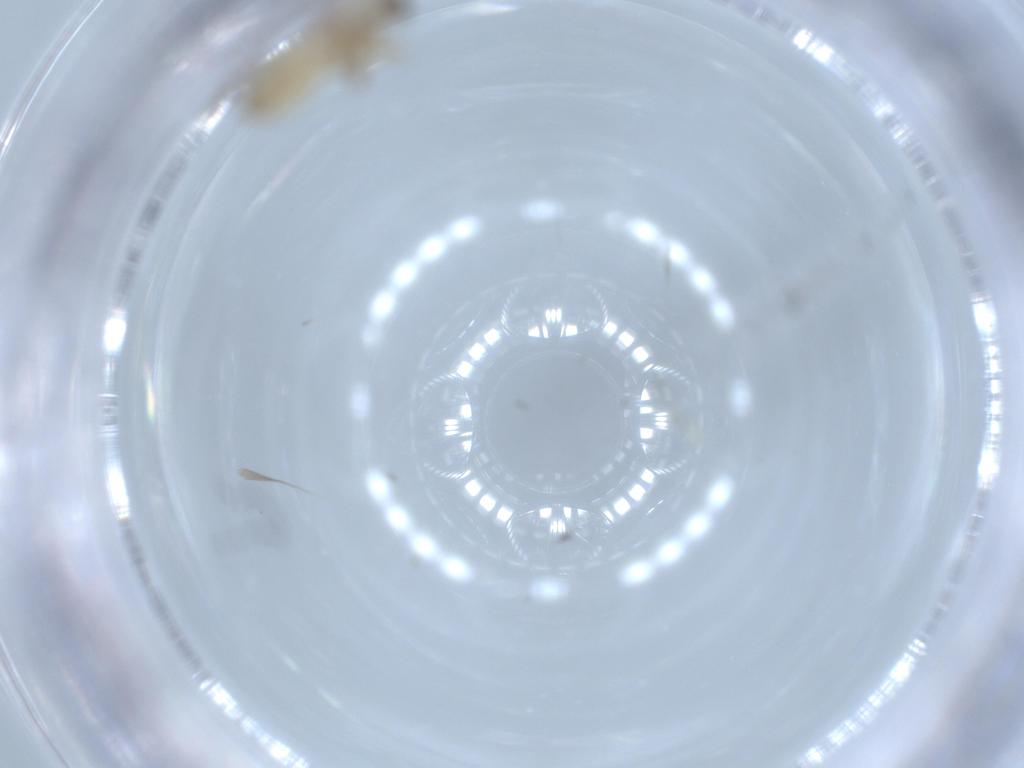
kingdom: Animalia
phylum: Arthropoda
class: Insecta
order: Diptera
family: Hybotidae
